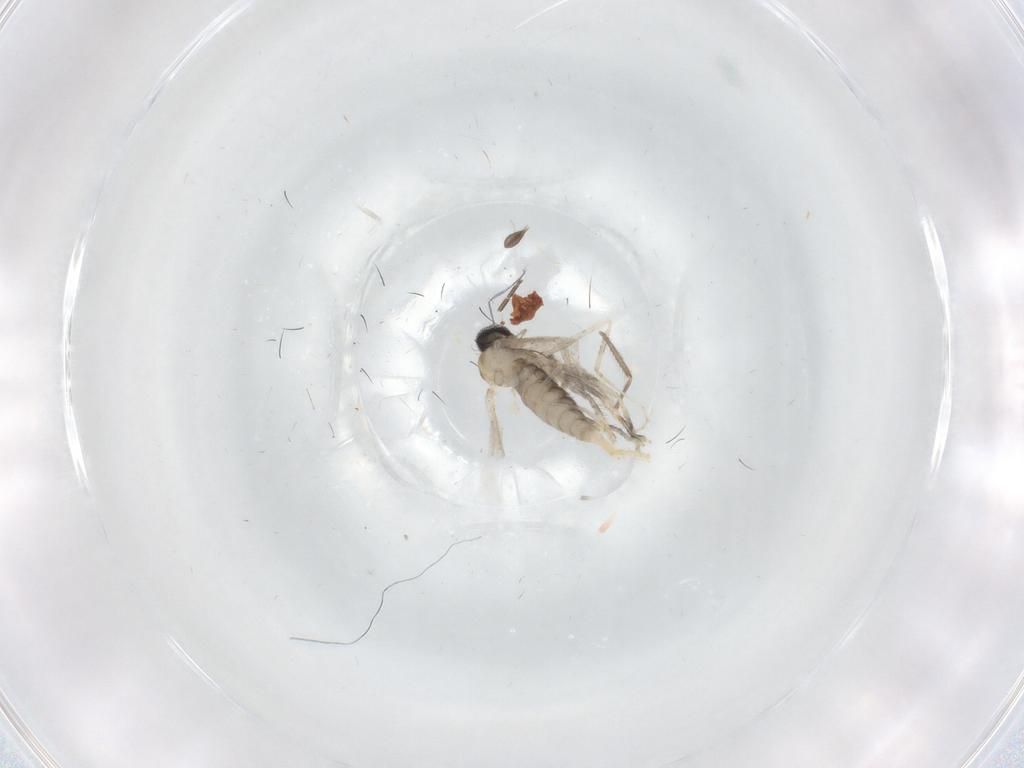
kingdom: Animalia
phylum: Arthropoda
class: Insecta
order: Diptera
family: Cecidomyiidae
